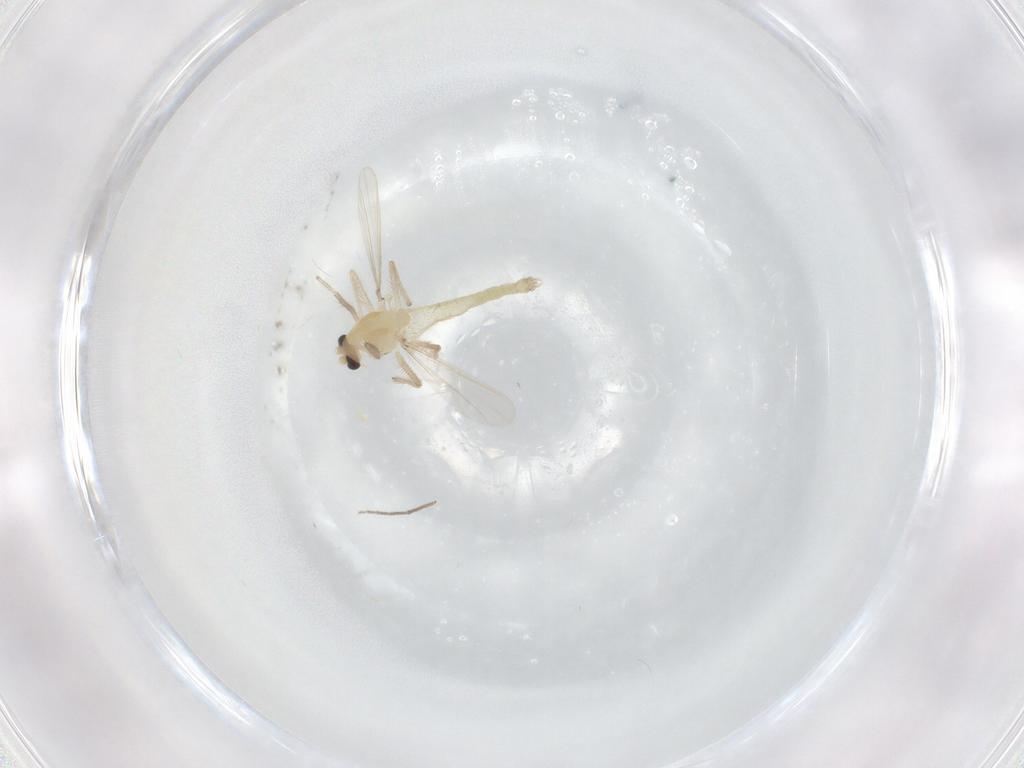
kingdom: Animalia
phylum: Arthropoda
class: Insecta
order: Diptera
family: Chironomidae
